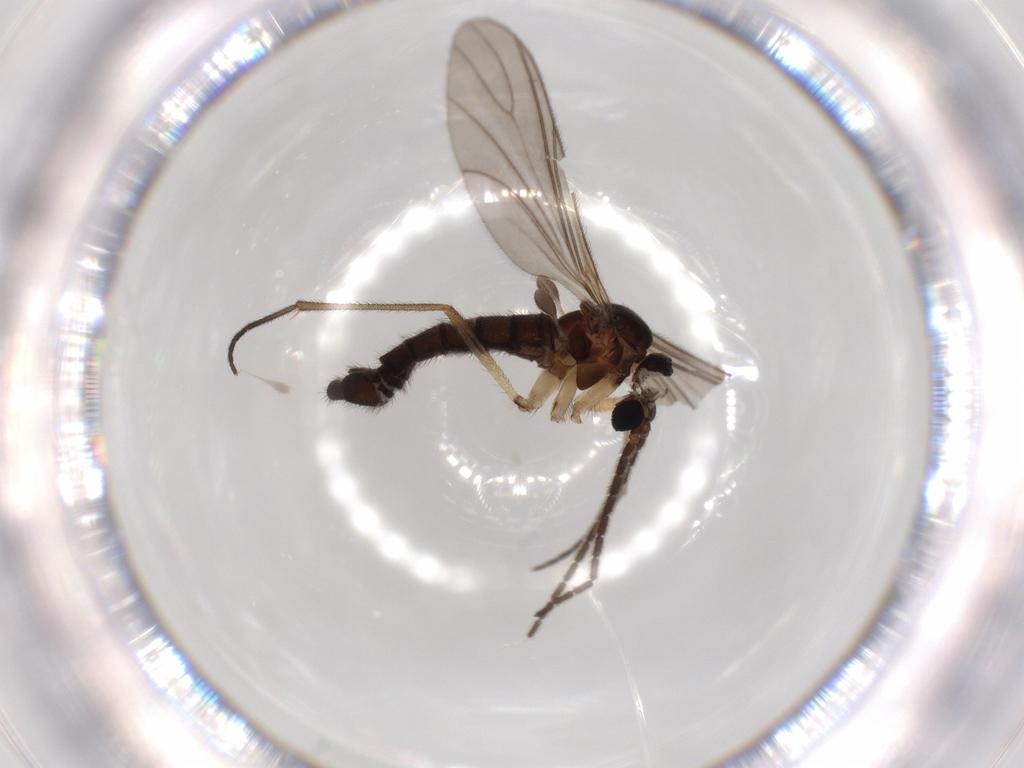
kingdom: Animalia
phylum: Arthropoda
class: Insecta
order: Diptera
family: Sciaridae
